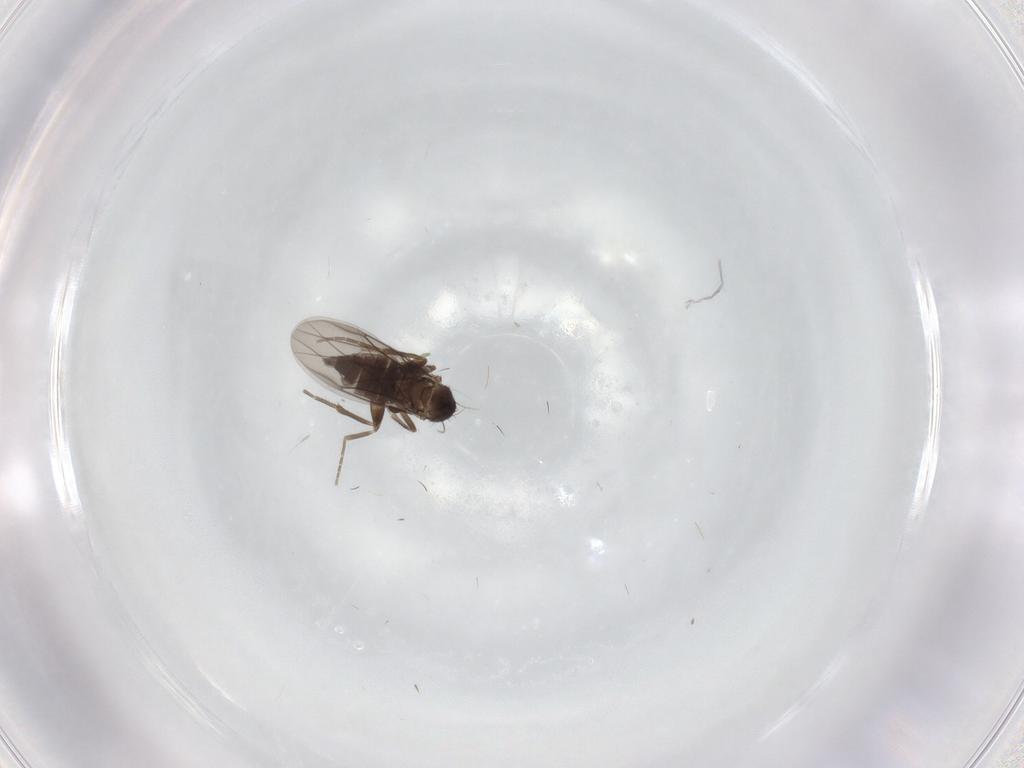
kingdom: Animalia
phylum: Arthropoda
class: Insecta
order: Diptera
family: Phoridae
